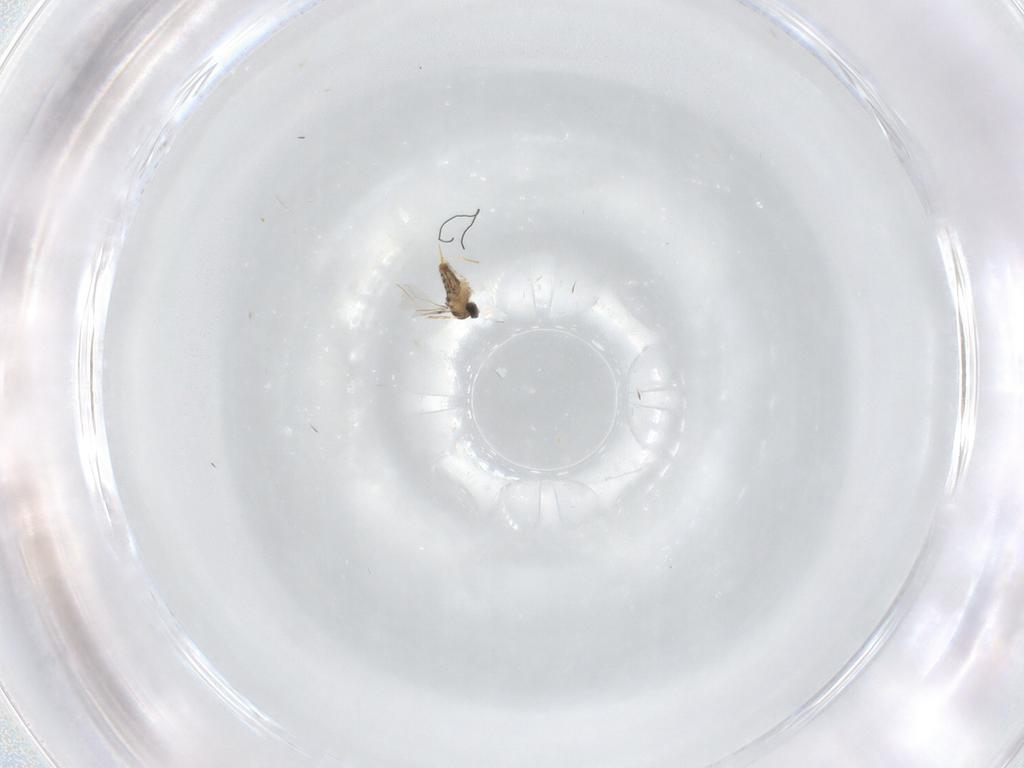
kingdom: Animalia
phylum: Arthropoda
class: Insecta
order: Diptera
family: Cecidomyiidae
